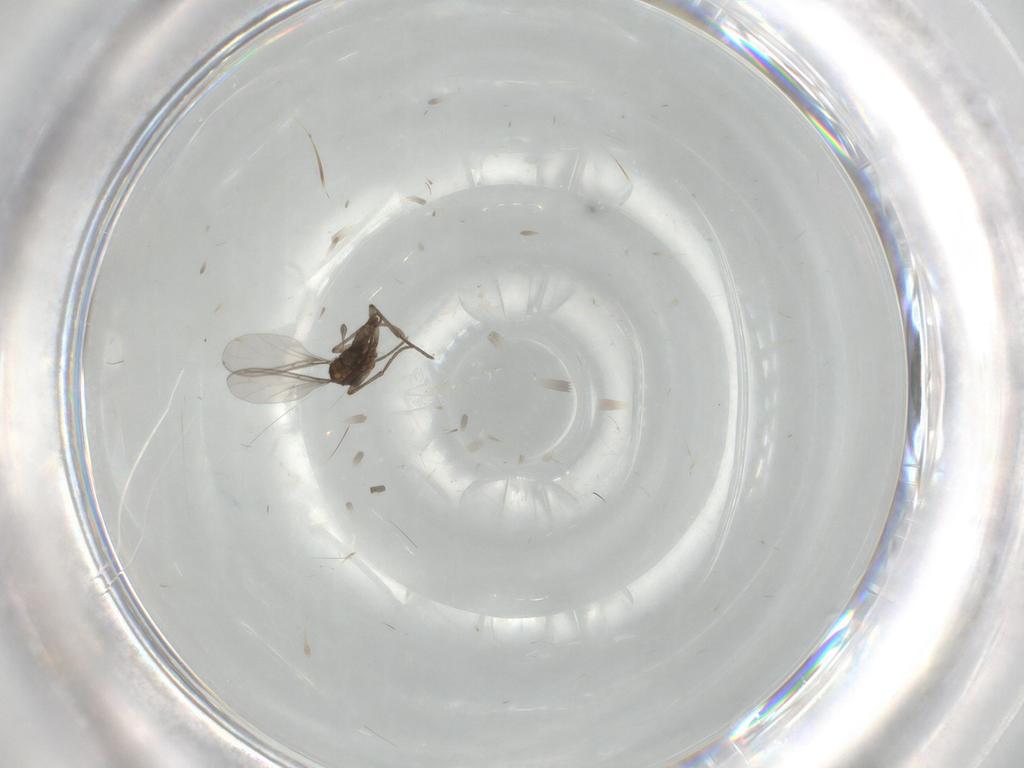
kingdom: Animalia
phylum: Arthropoda
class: Insecta
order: Diptera
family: Sciaridae
